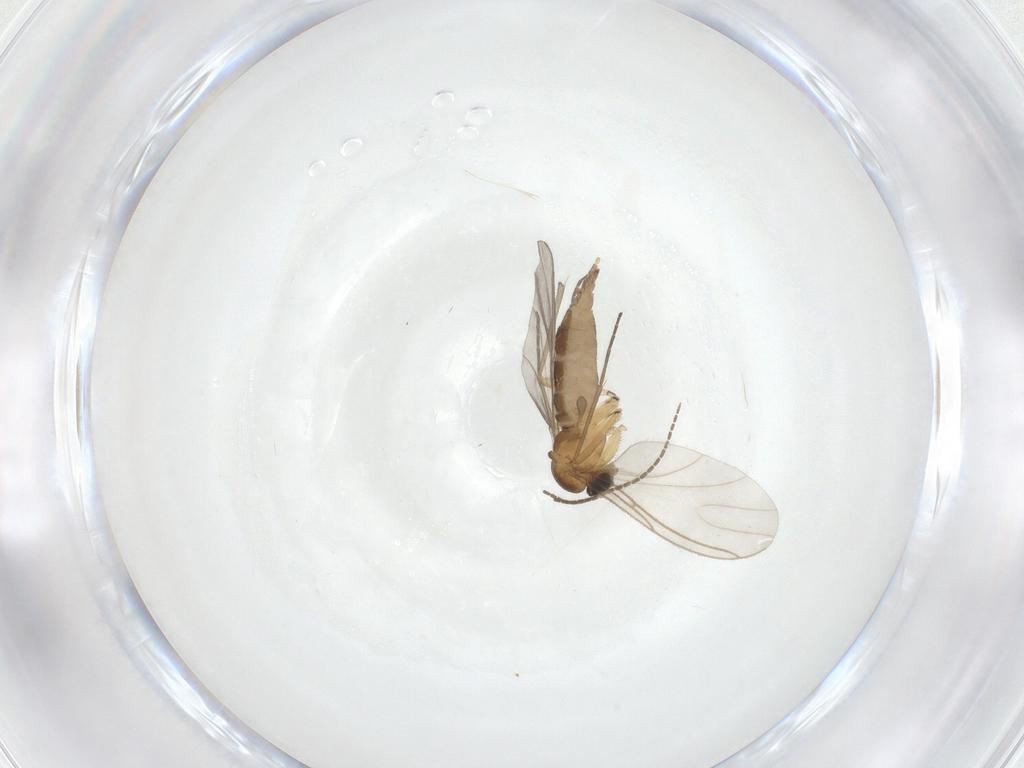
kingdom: Animalia
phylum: Arthropoda
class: Insecta
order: Diptera
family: Sciaridae
